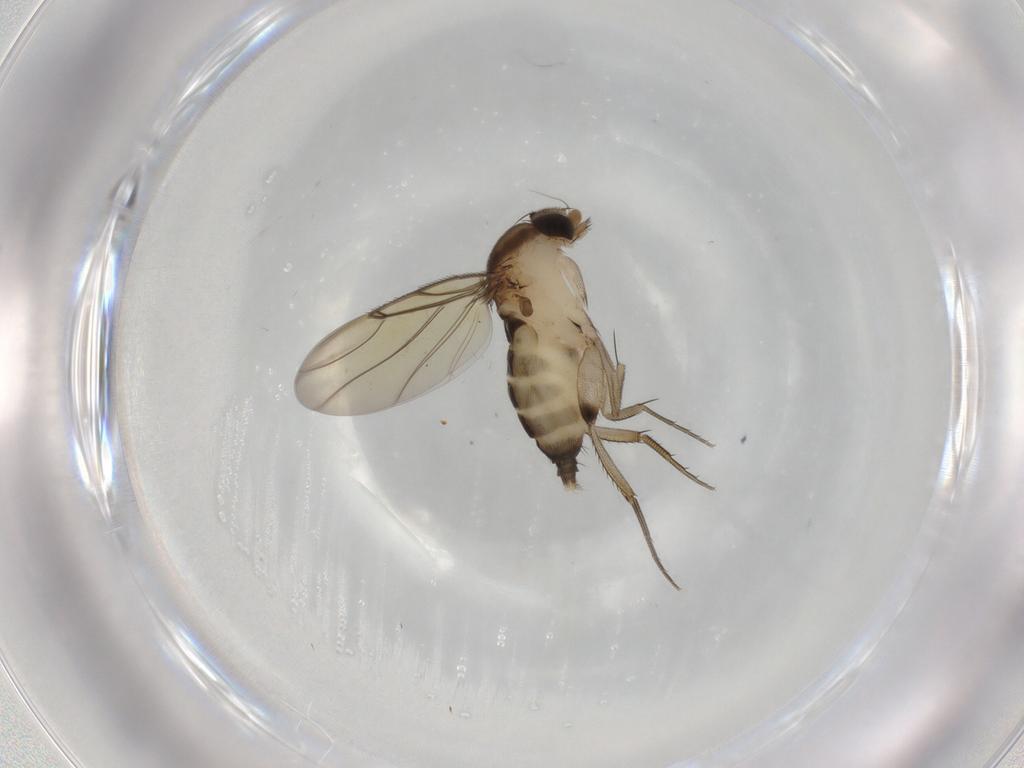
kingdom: Animalia
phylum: Arthropoda
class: Insecta
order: Diptera
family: Phoridae
